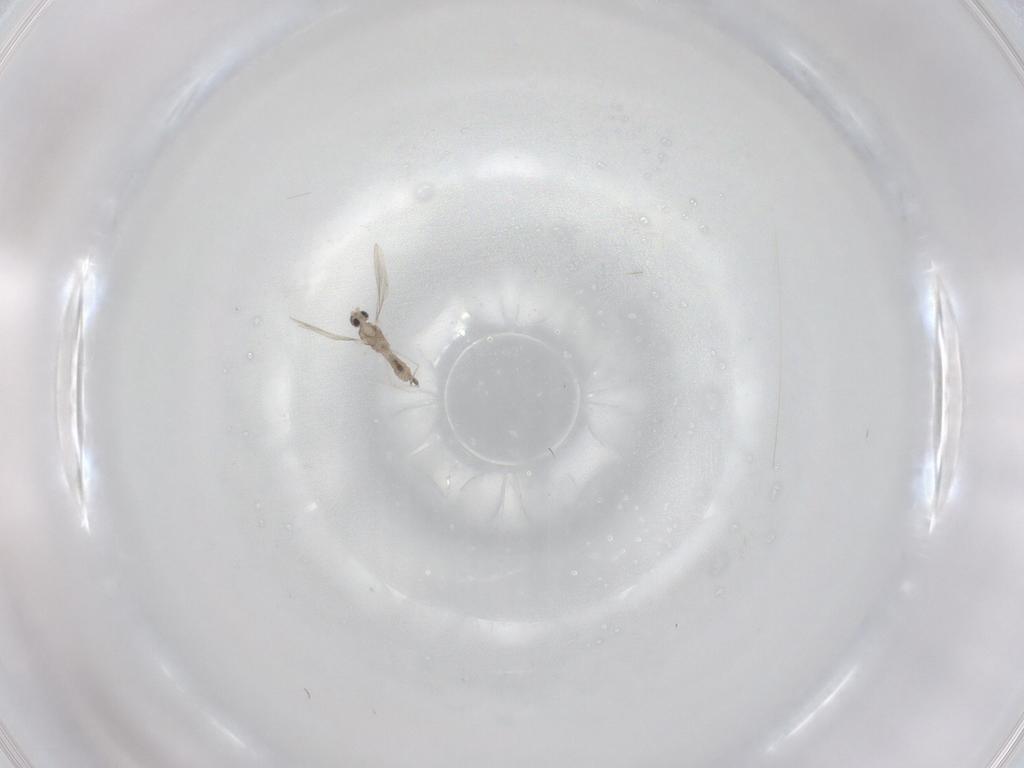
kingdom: Animalia
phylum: Arthropoda
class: Insecta
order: Diptera
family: Cecidomyiidae
